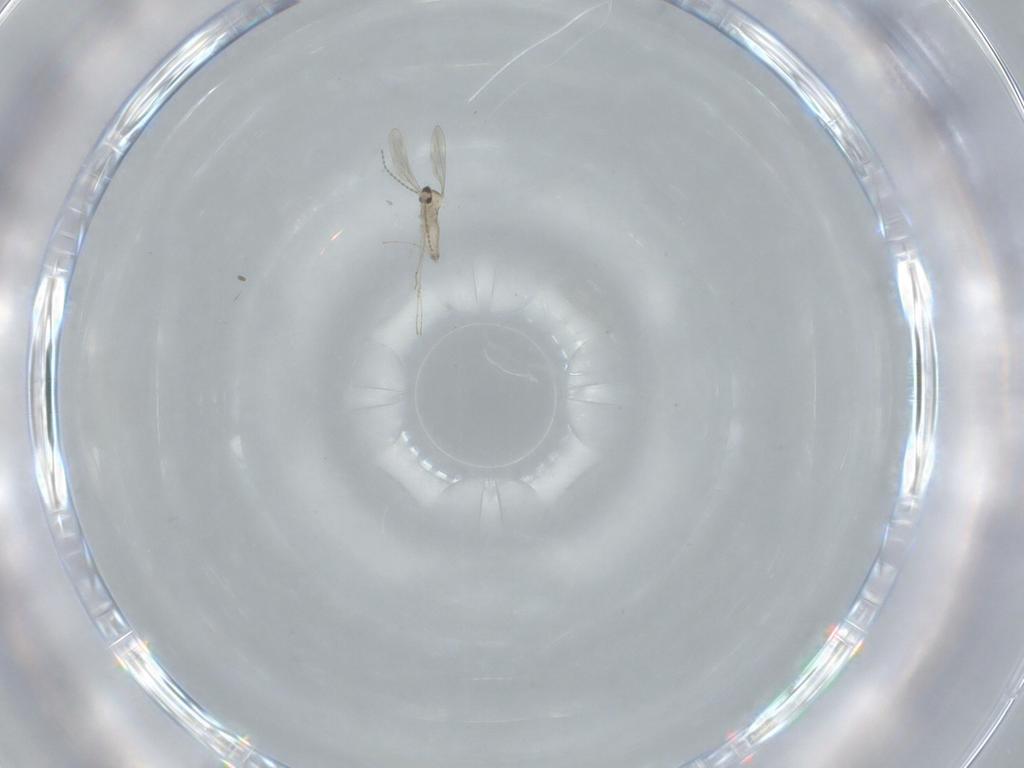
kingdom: Animalia
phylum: Arthropoda
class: Insecta
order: Diptera
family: Cecidomyiidae
